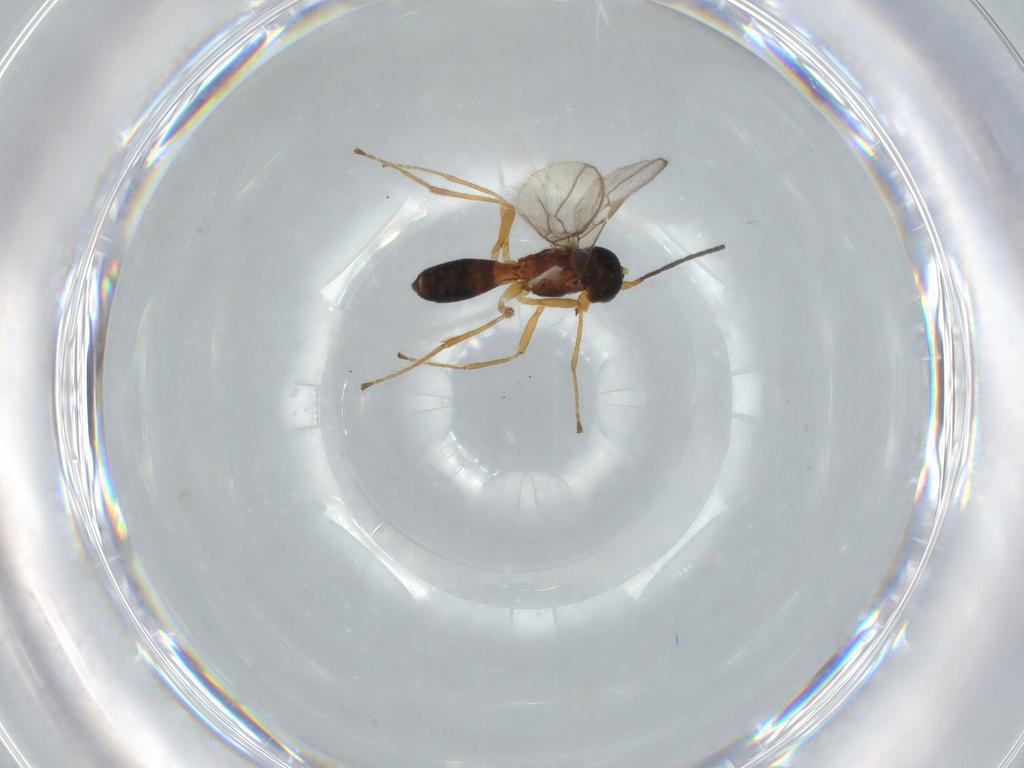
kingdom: Animalia
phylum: Arthropoda
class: Insecta
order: Hymenoptera
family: Braconidae
